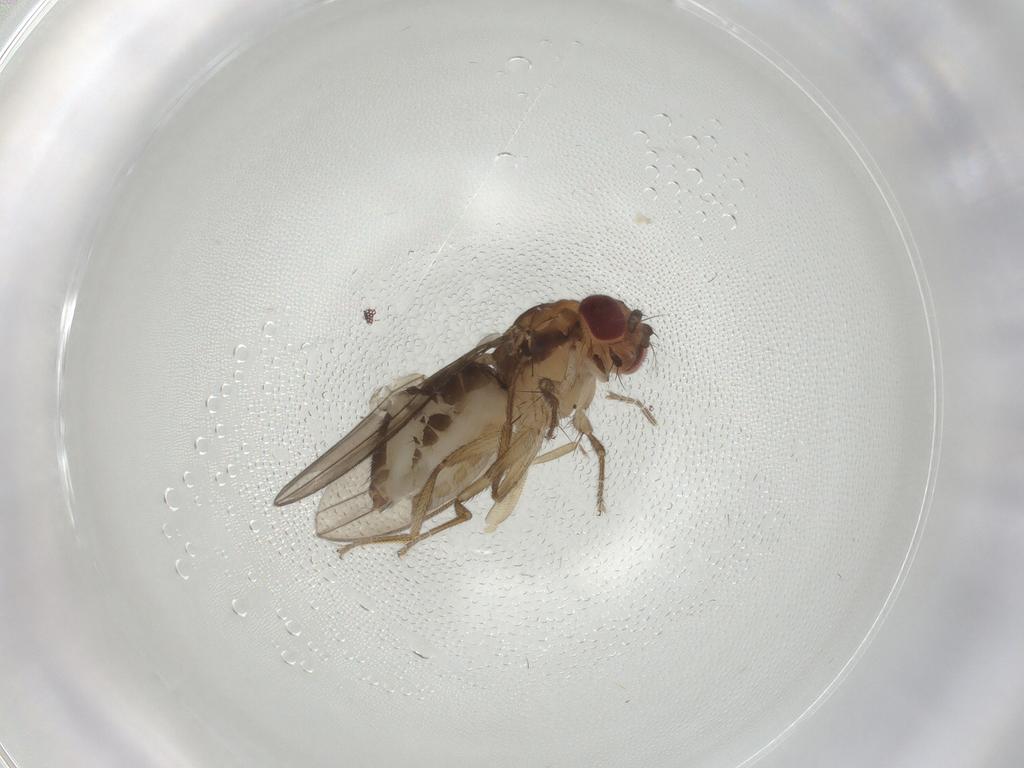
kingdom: Animalia
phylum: Arthropoda
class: Insecta
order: Diptera
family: Drosophilidae
